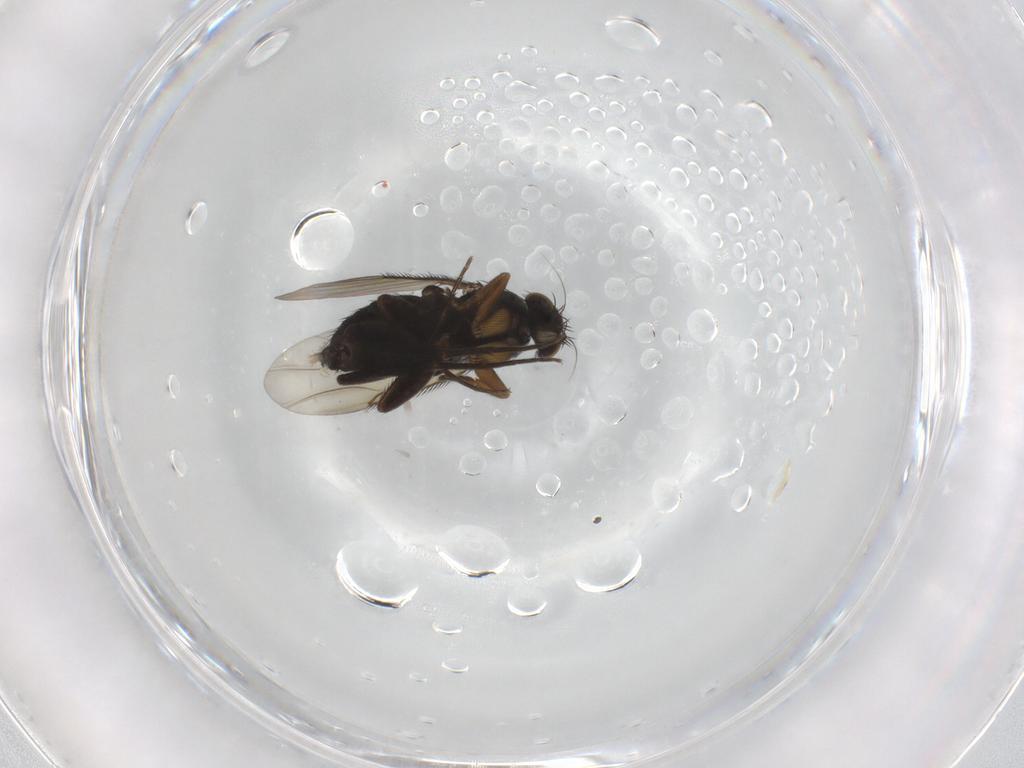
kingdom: Animalia
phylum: Arthropoda
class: Insecta
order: Diptera
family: Phoridae
